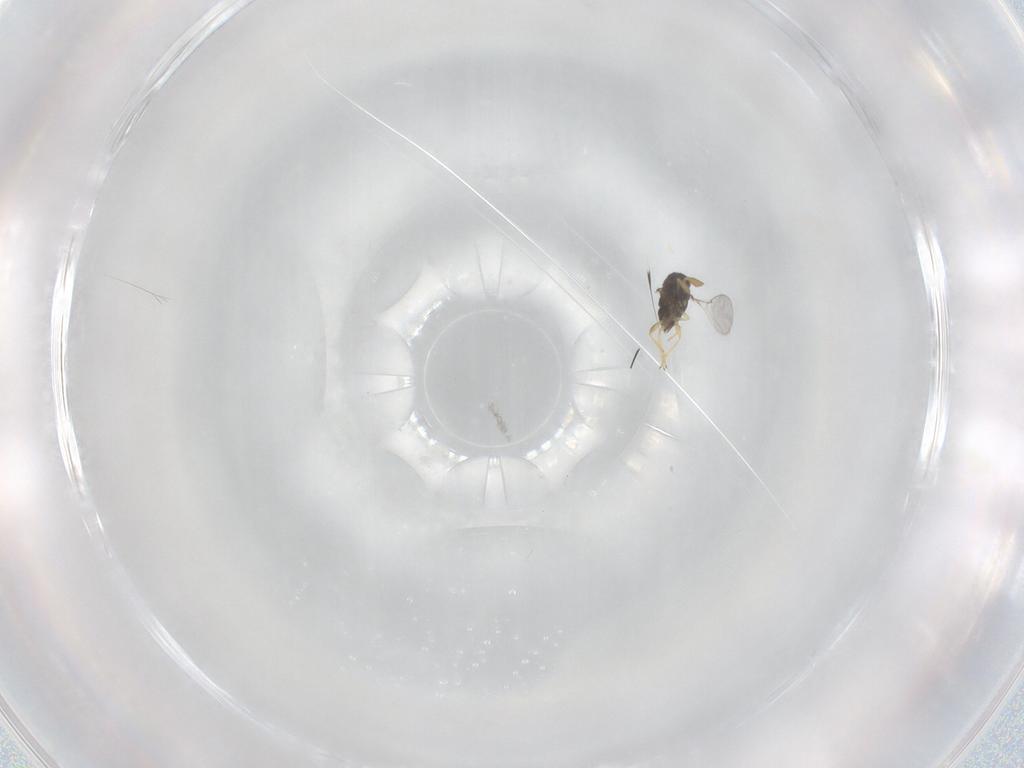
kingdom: Animalia
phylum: Arthropoda
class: Insecta
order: Hymenoptera
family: Encyrtidae
